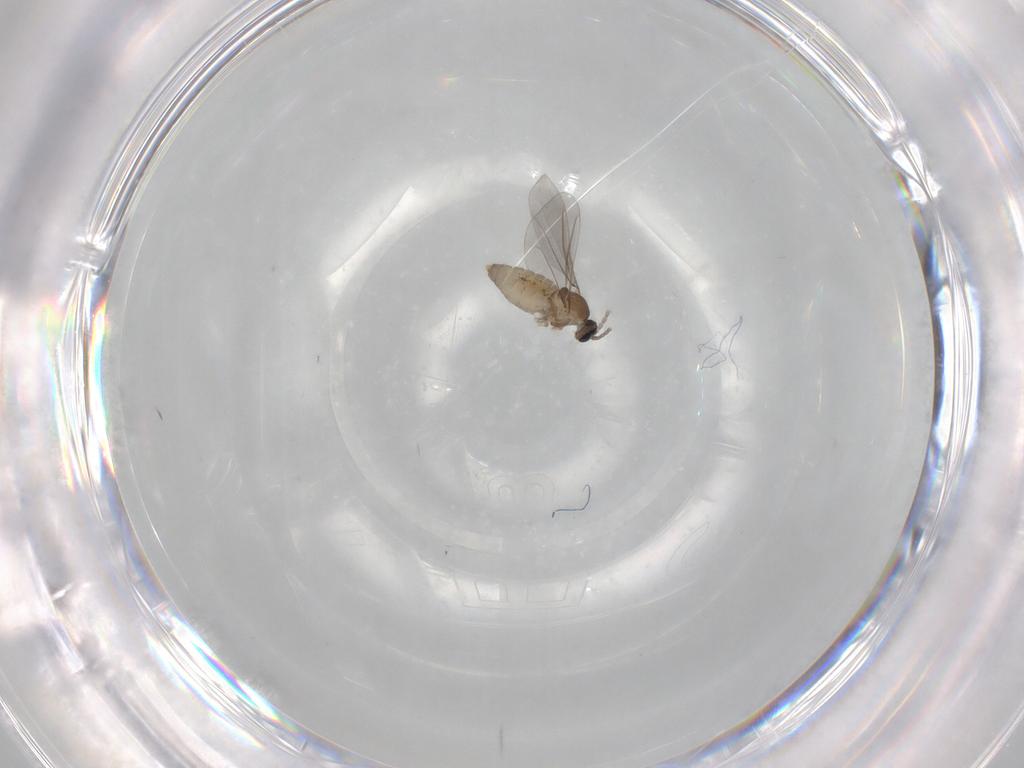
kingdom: Animalia
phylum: Arthropoda
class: Insecta
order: Diptera
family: Cecidomyiidae
